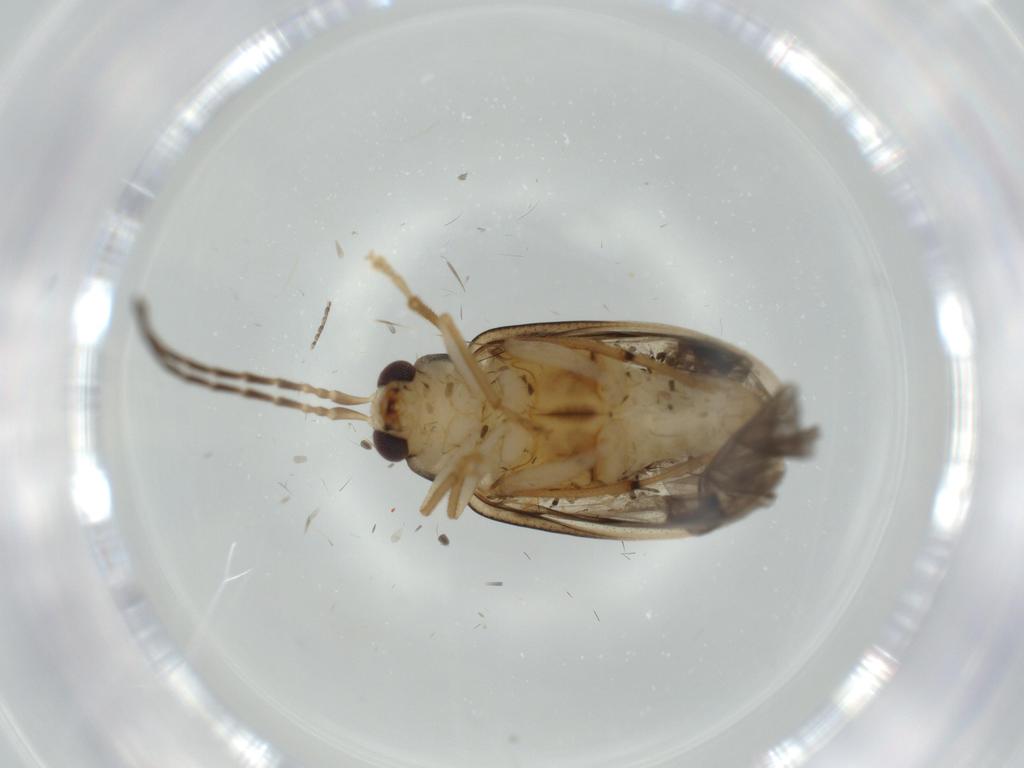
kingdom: Animalia
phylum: Arthropoda
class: Insecta
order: Coleoptera
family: Chrysomelidae
